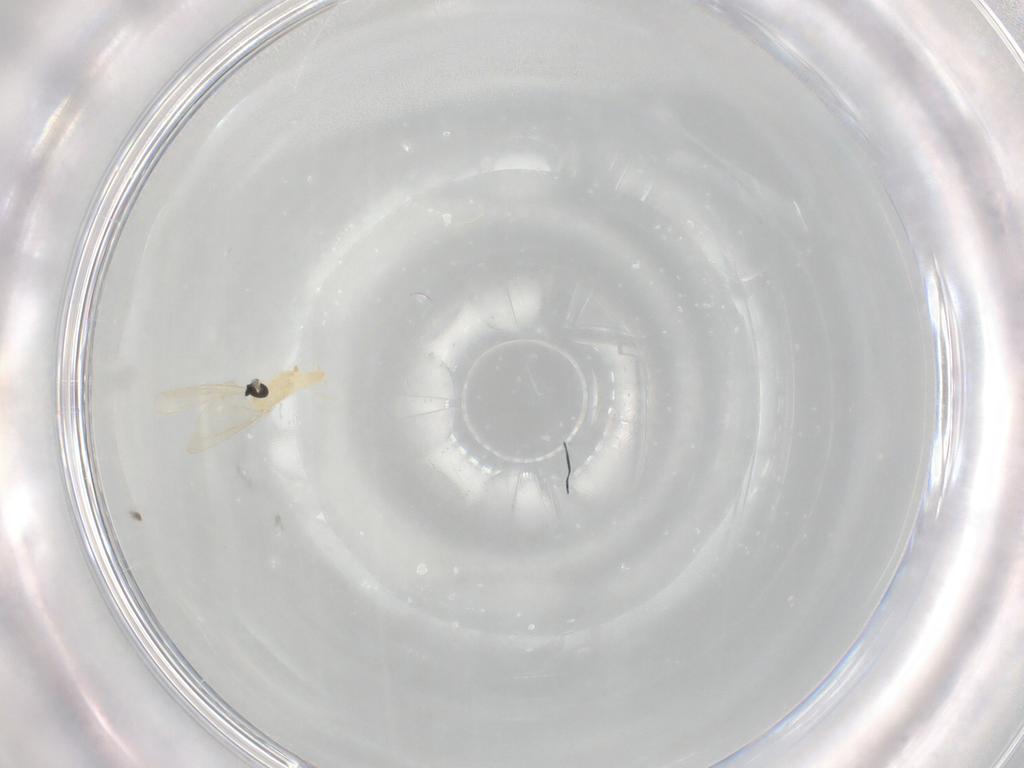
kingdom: Animalia
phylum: Arthropoda
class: Insecta
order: Diptera
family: Cecidomyiidae
